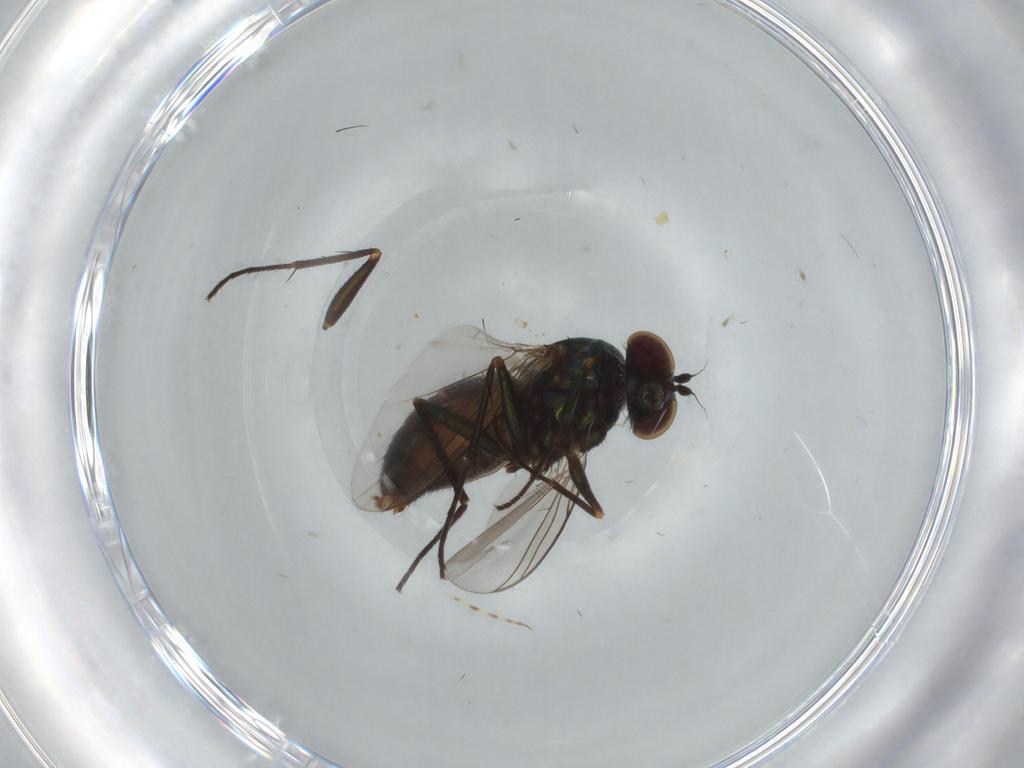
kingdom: Animalia
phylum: Arthropoda
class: Insecta
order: Diptera
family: Dolichopodidae
